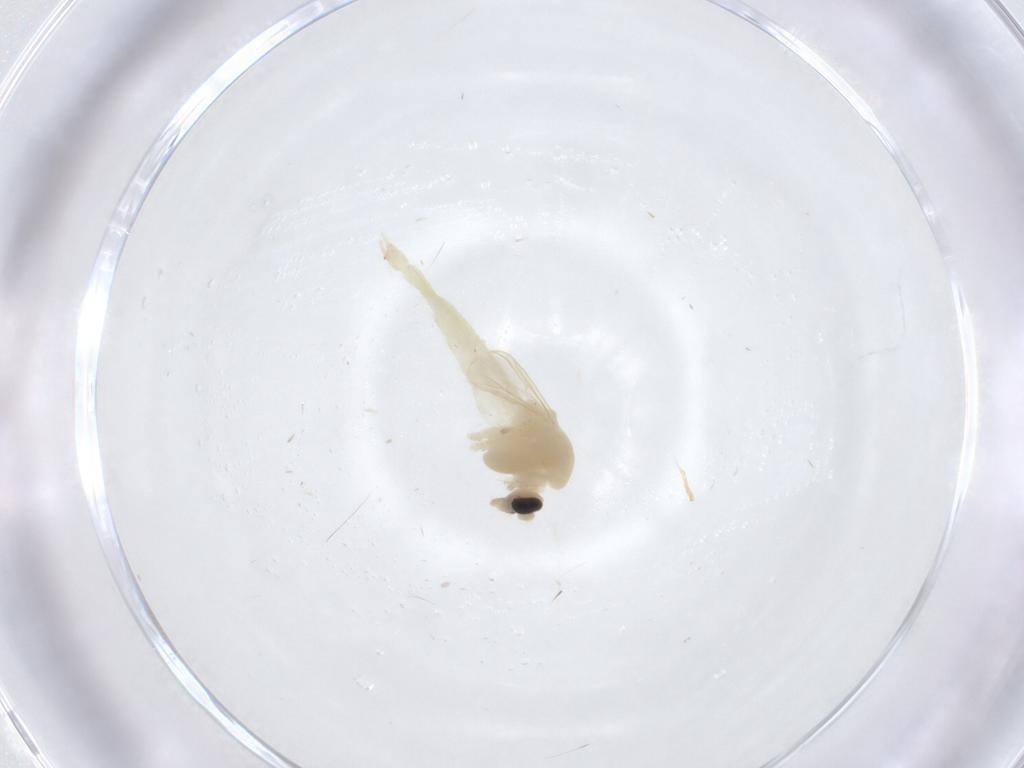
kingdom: Animalia
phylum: Arthropoda
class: Insecta
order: Diptera
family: Chironomidae
